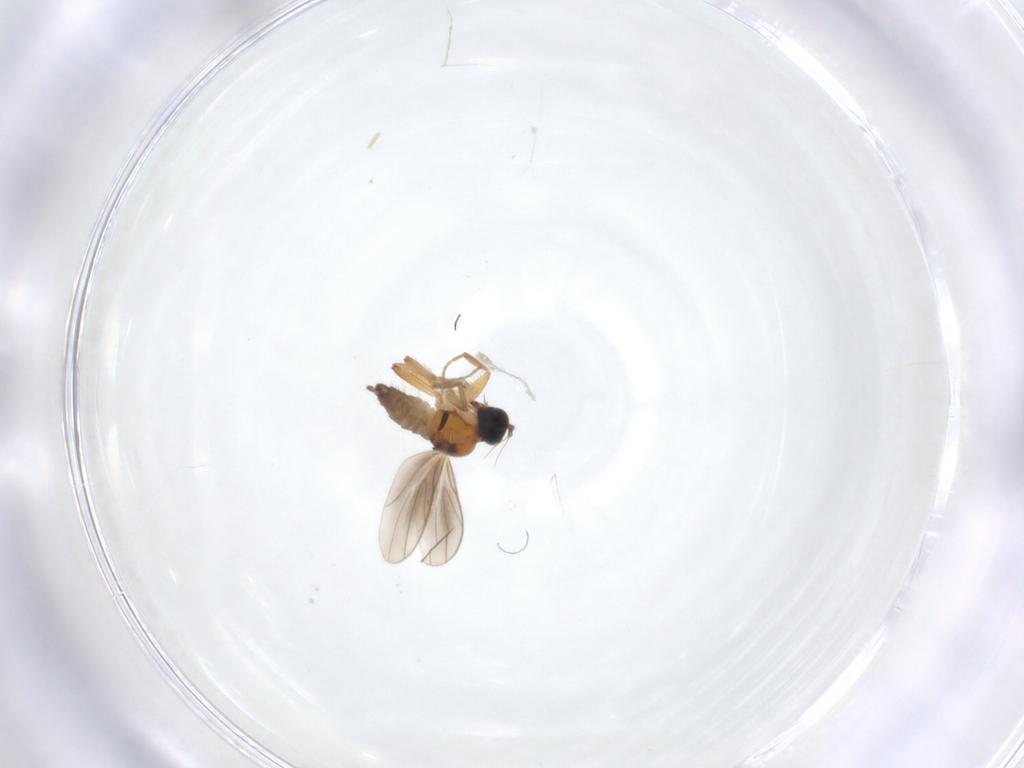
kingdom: Animalia
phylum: Arthropoda
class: Insecta
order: Diptera
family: Hybotidae
